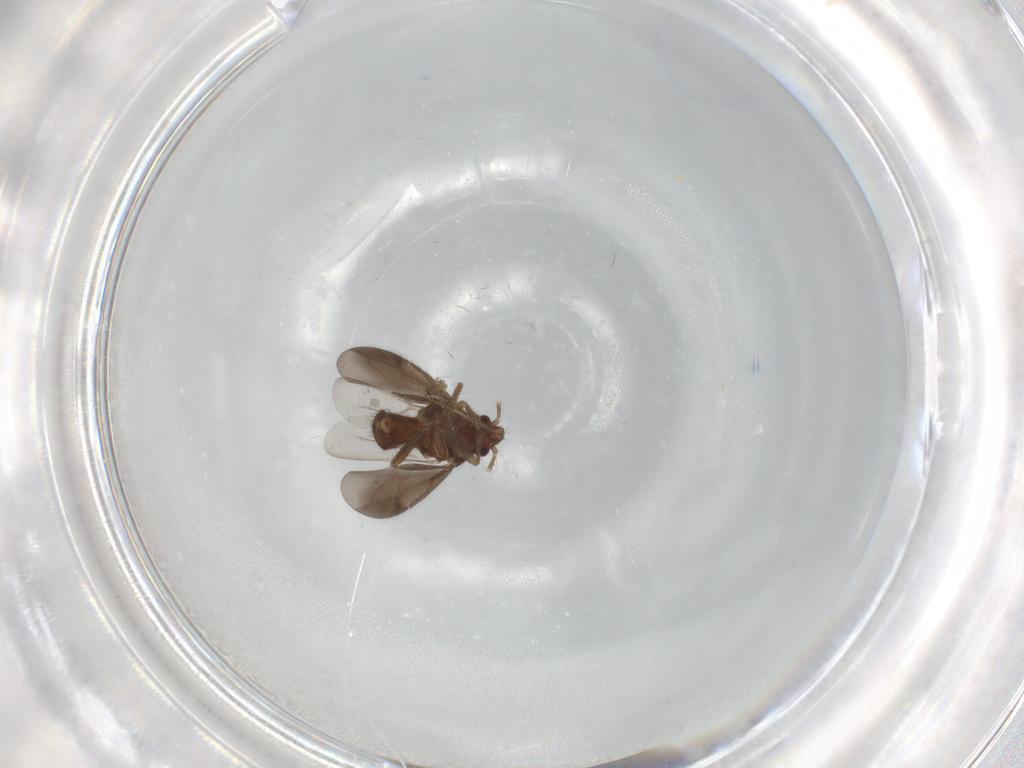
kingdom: Animalia
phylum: Arthropoda
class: Insecta
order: Hemiptera
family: Ceratocombidae
